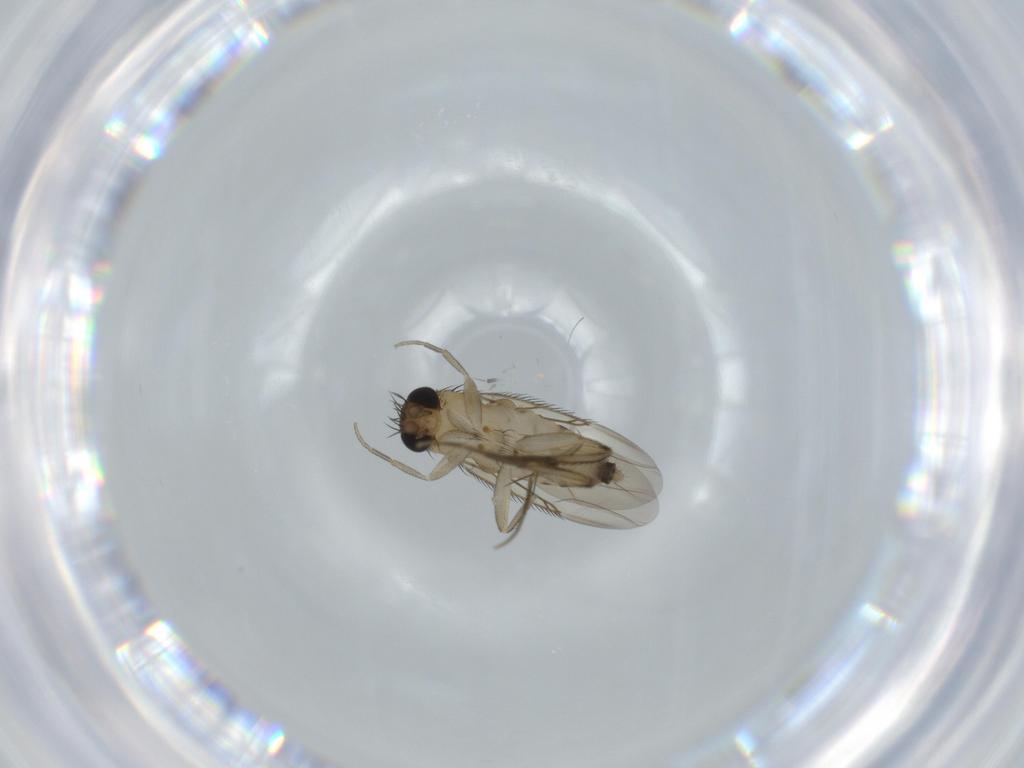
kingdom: Animalia
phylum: Arthropoda
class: Insecta
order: Diptera
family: Phoridae
